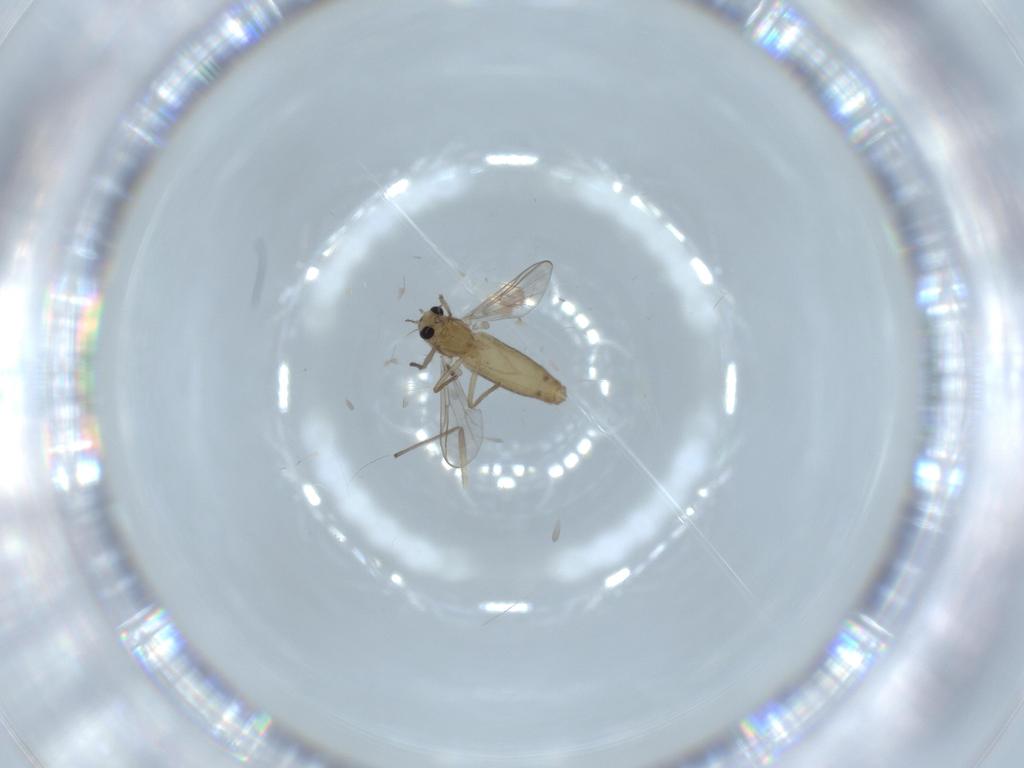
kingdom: Animalia
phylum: Arthropoda
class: Insecta
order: Diptera
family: Chironomidae
